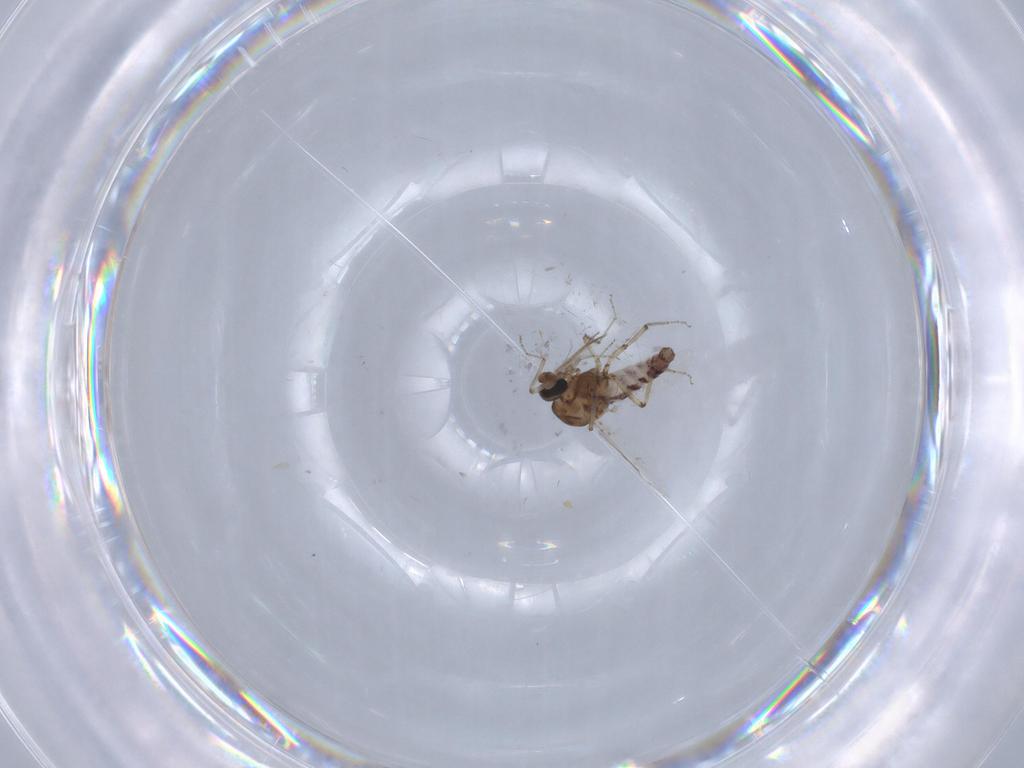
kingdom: Animalia
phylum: Arthropoda
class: Insecta
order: Diptera
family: Ceratopogonidae
